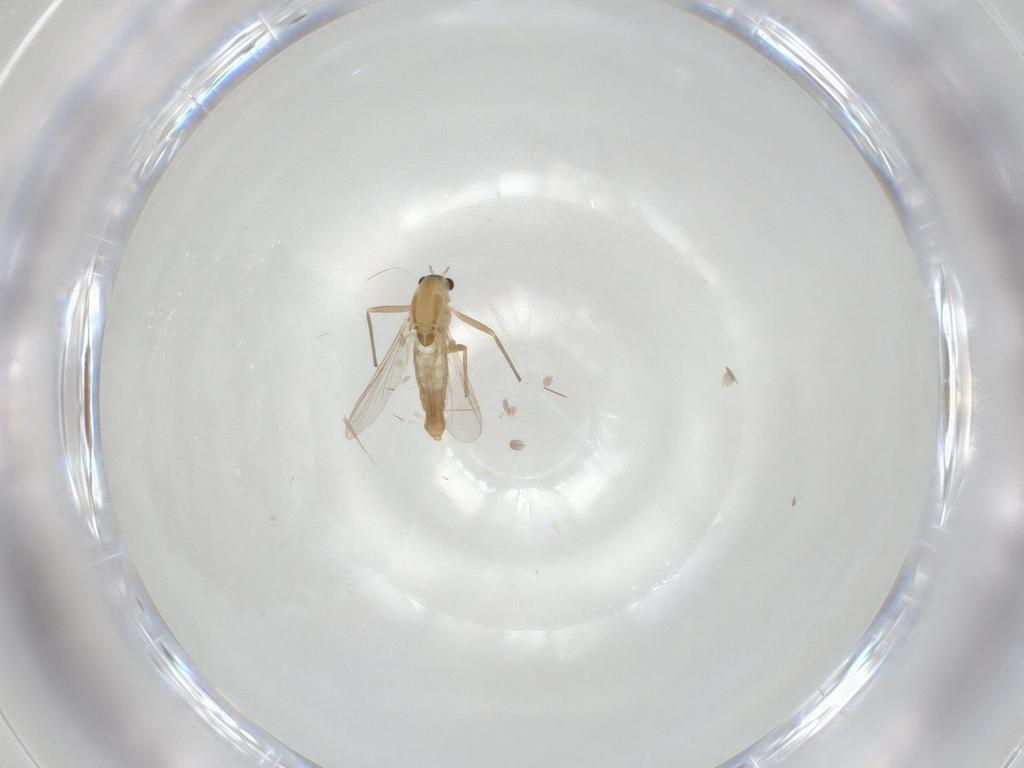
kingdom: Animalia
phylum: Arthropoda
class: Insecta
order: Diptera
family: Chironomidae
